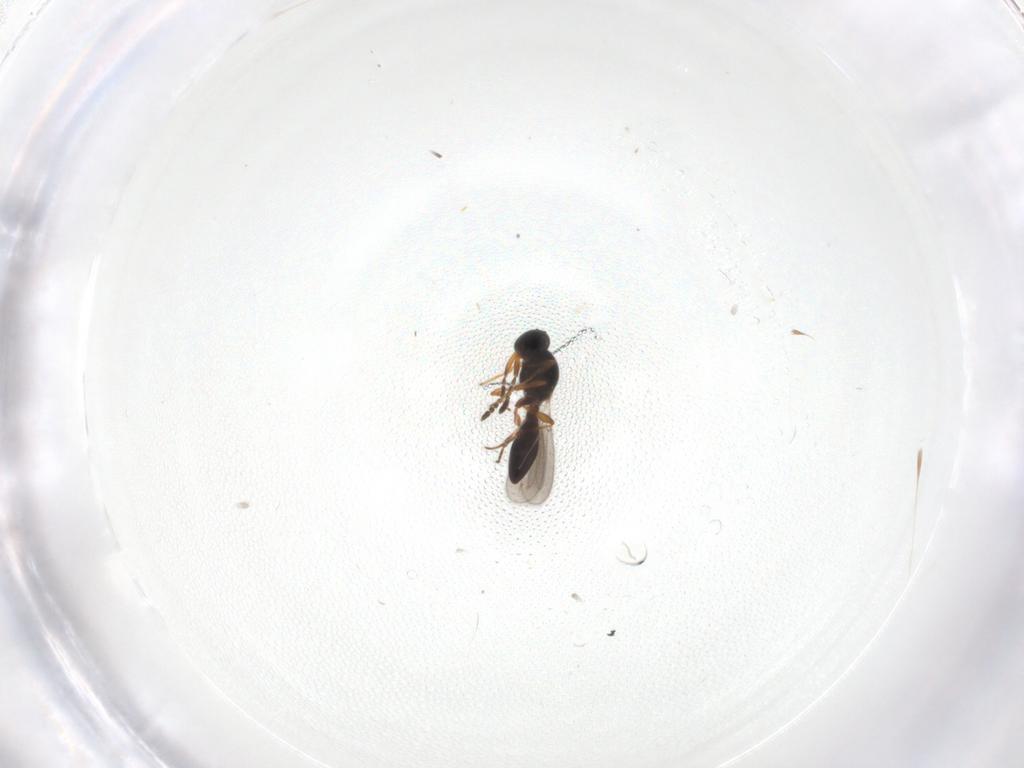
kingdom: Animalia
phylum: Arthropoda
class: Insecta
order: Hymenoptera
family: Platygastridae
